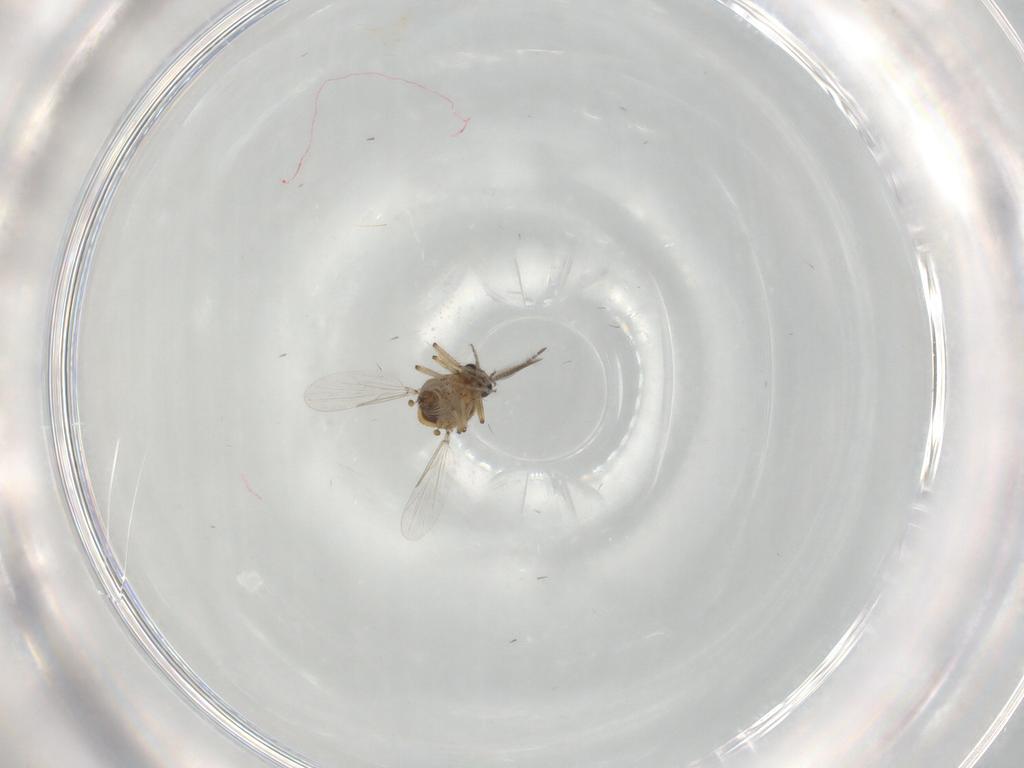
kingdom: Animalia
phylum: Arthropoda
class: Insecta
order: Diptera
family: Ceratopogonidae
